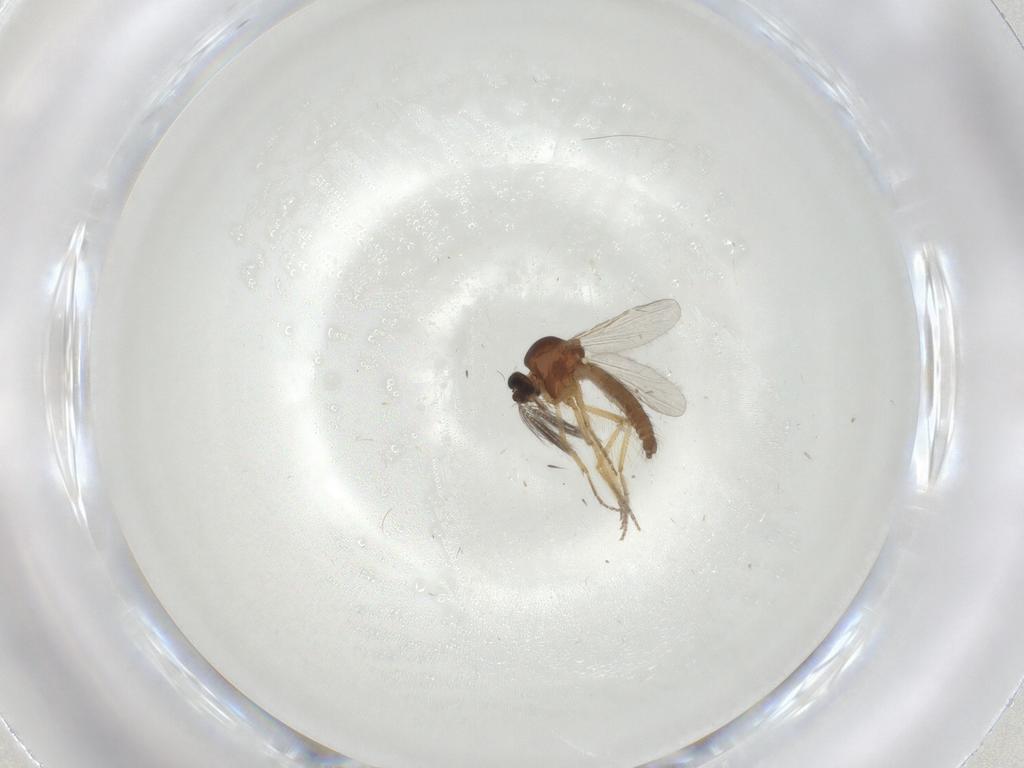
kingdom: Animalia
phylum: Arthropoda
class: Insecta
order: Diptera
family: Ceratopogonidae
